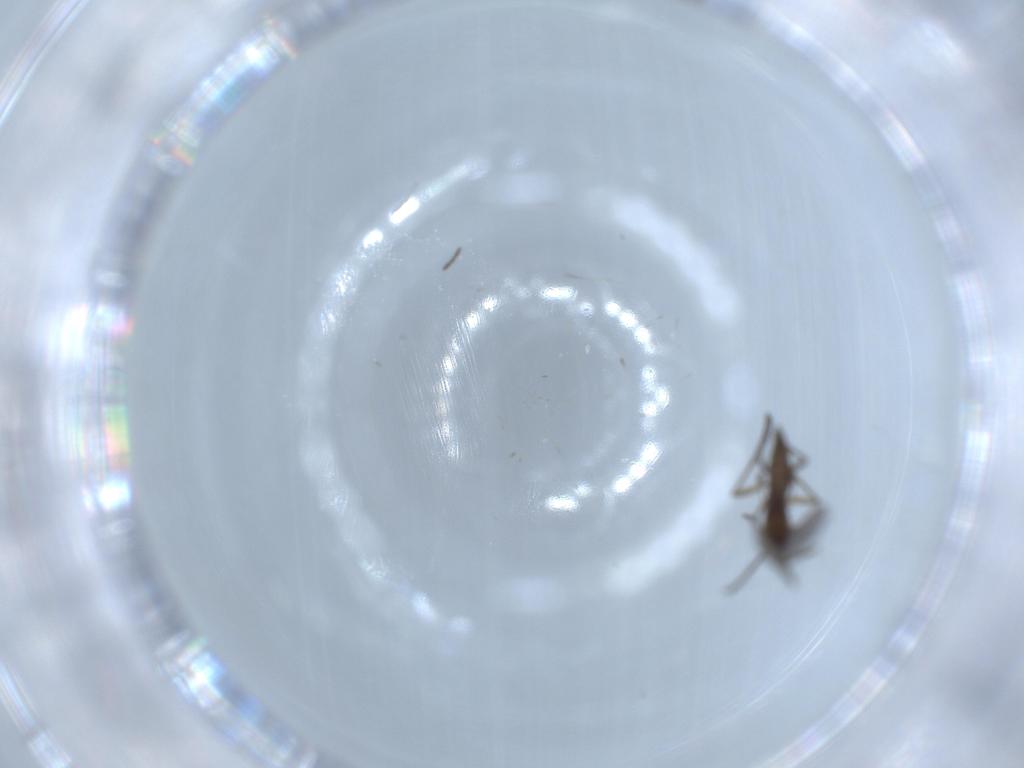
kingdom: Animalia
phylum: Arthropoda
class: Insecta
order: Diptera
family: Sciaridae
